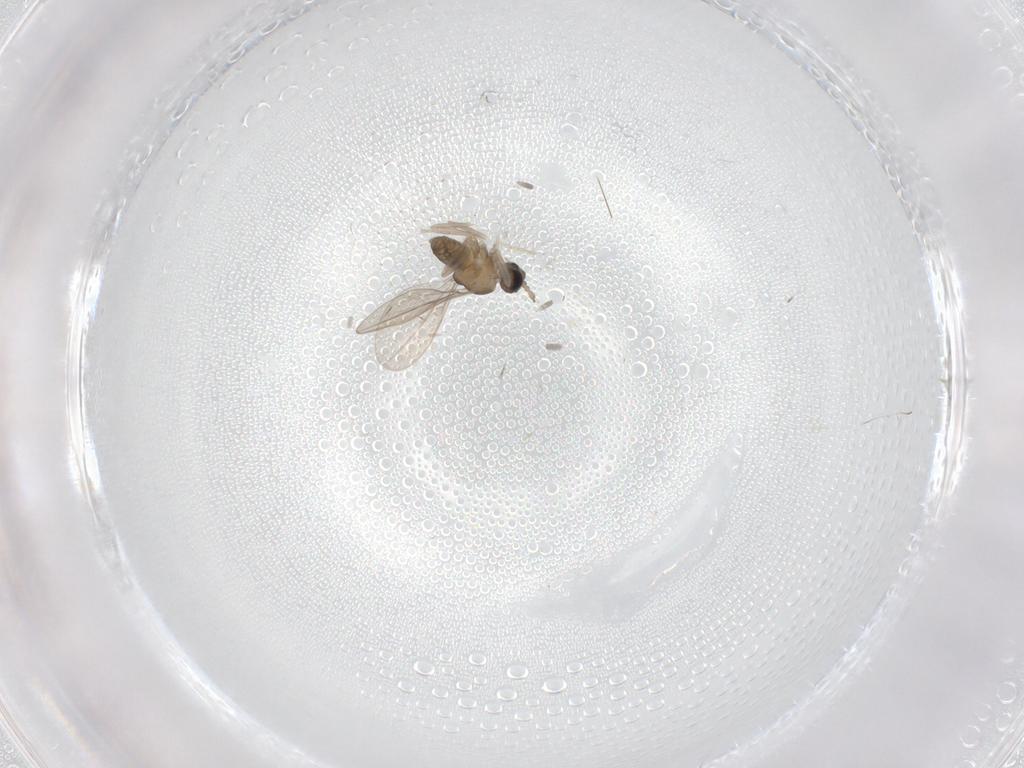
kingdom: Animalia
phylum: Arthropoda
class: Insecta
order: Diptera
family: Cecidomyiidae
